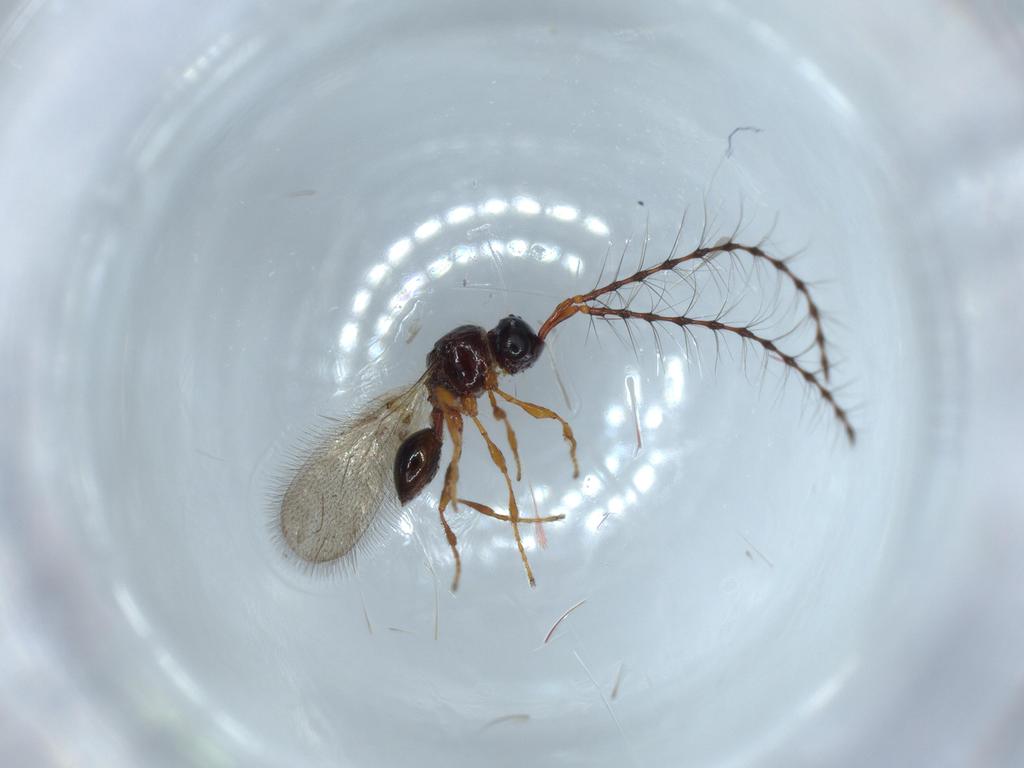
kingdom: Animalia
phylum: Arthropoda
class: Insecta
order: Hymenoptera
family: Diapriidae
